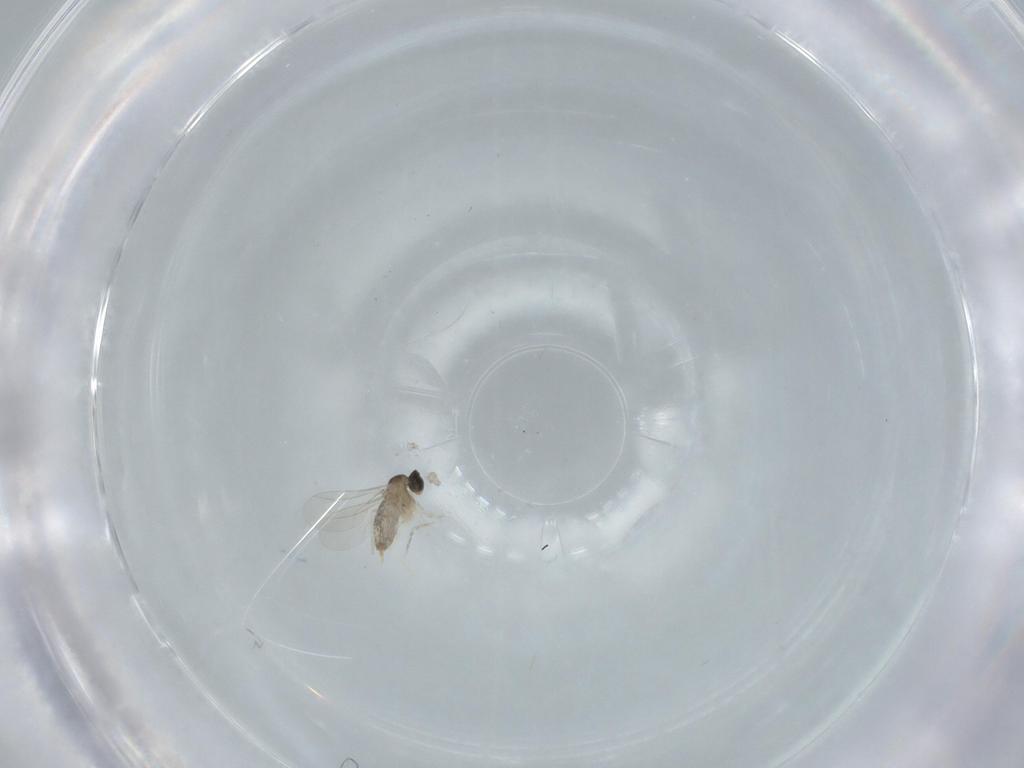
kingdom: Animalia
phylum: Arthropoda
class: Insecta
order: Diptera
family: Cecidomyiidae
